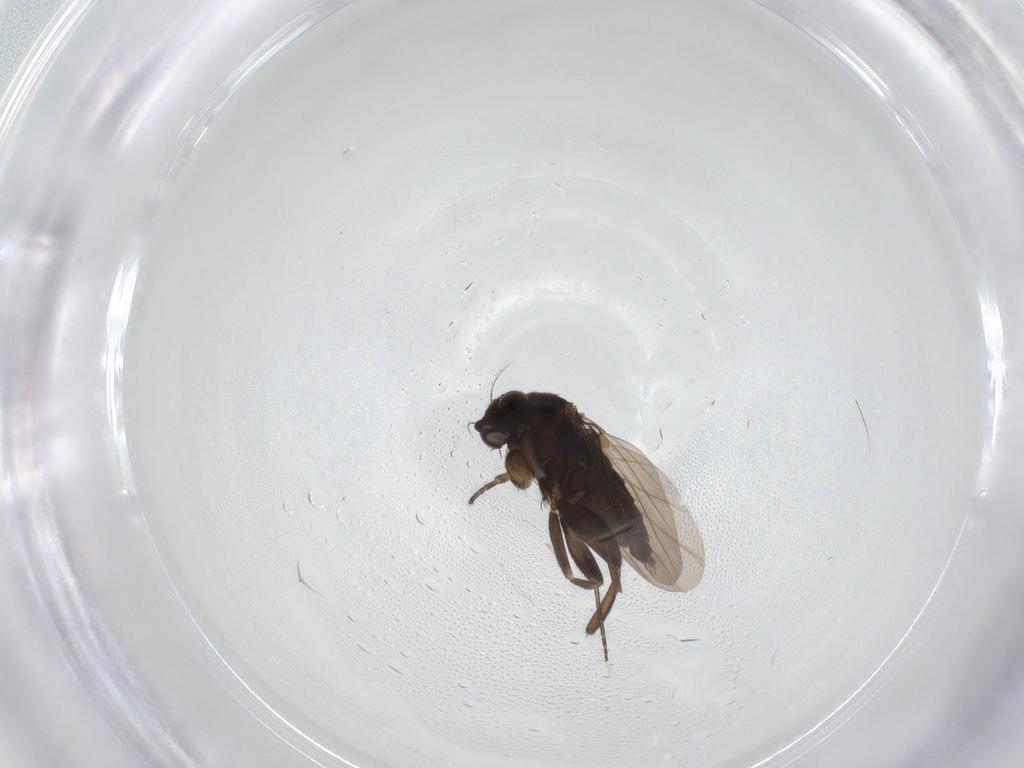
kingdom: Animalia
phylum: Arthropoda
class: Insecta
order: Diptera
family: Phoridae
